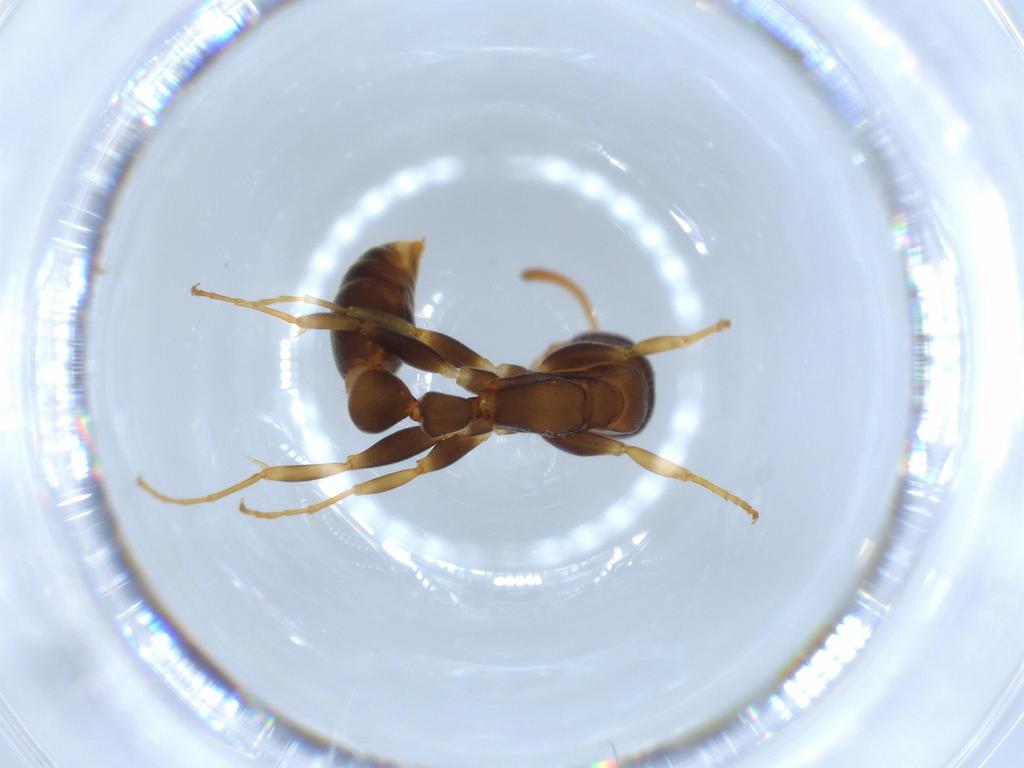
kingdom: Animalia
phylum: Arthropoda
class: Insecta
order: Hymenoptera
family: Formicidae
